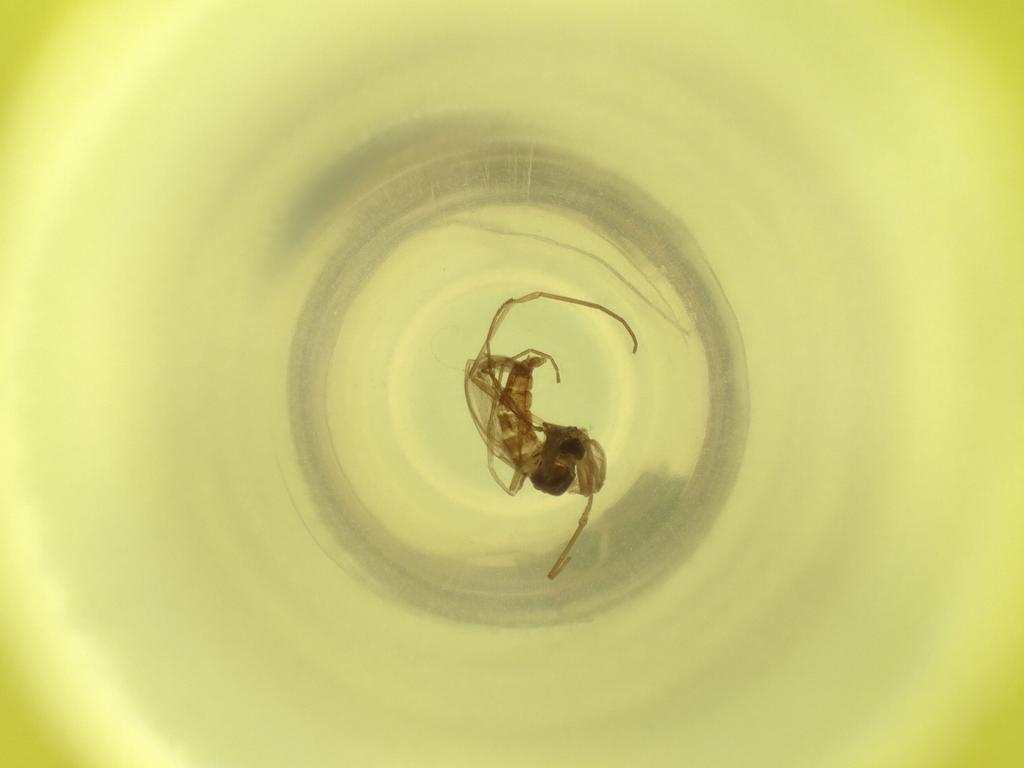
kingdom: Animalia
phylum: Arthropoda
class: Insecta
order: Diptera
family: Cecidomyiidae
